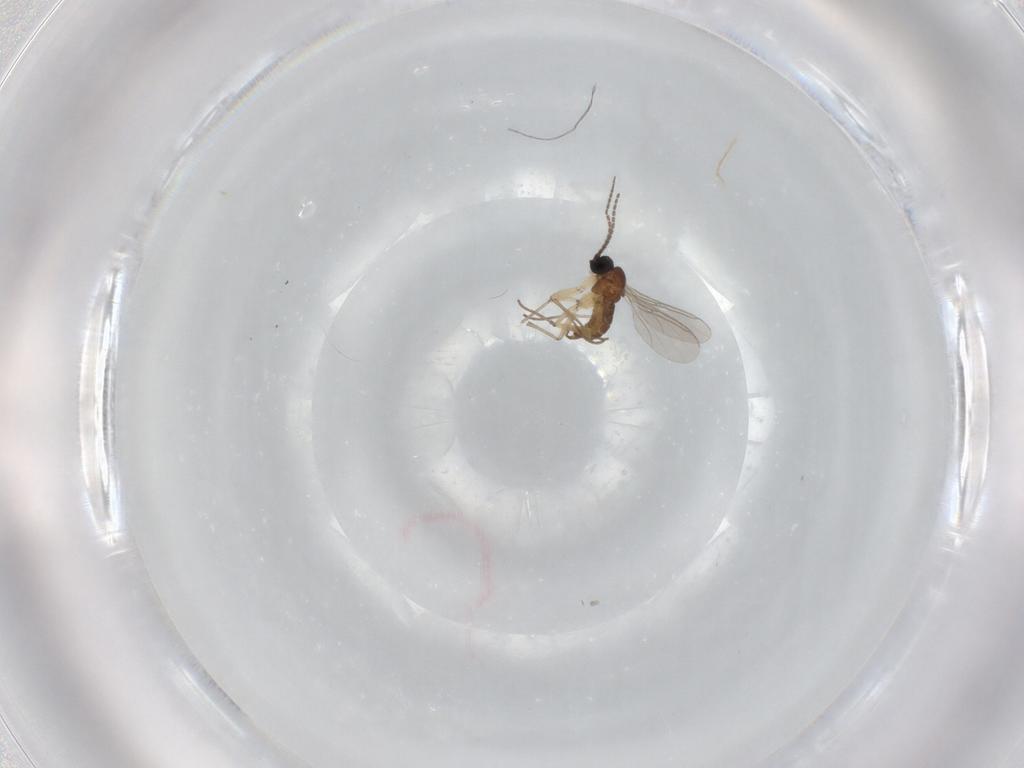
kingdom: Animalia
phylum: Arthropoda
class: Insecta
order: Diptera
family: Sciaridae
